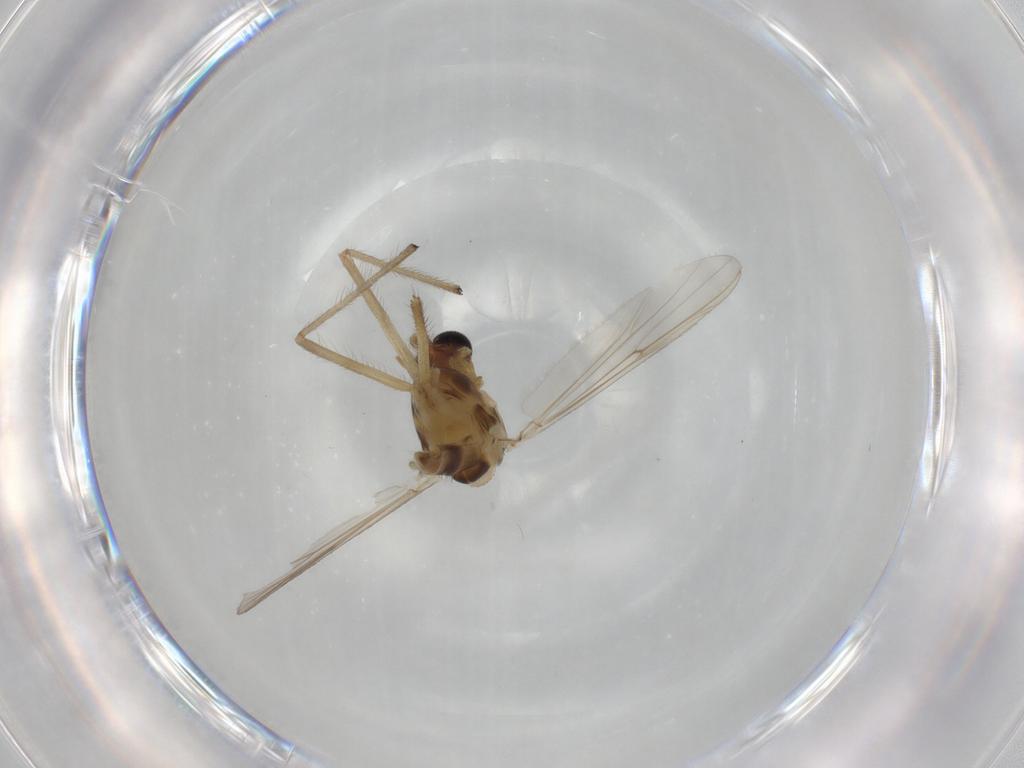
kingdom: Animalia
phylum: Arthropoda
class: Insecta
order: Diptera
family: Chironomidae
